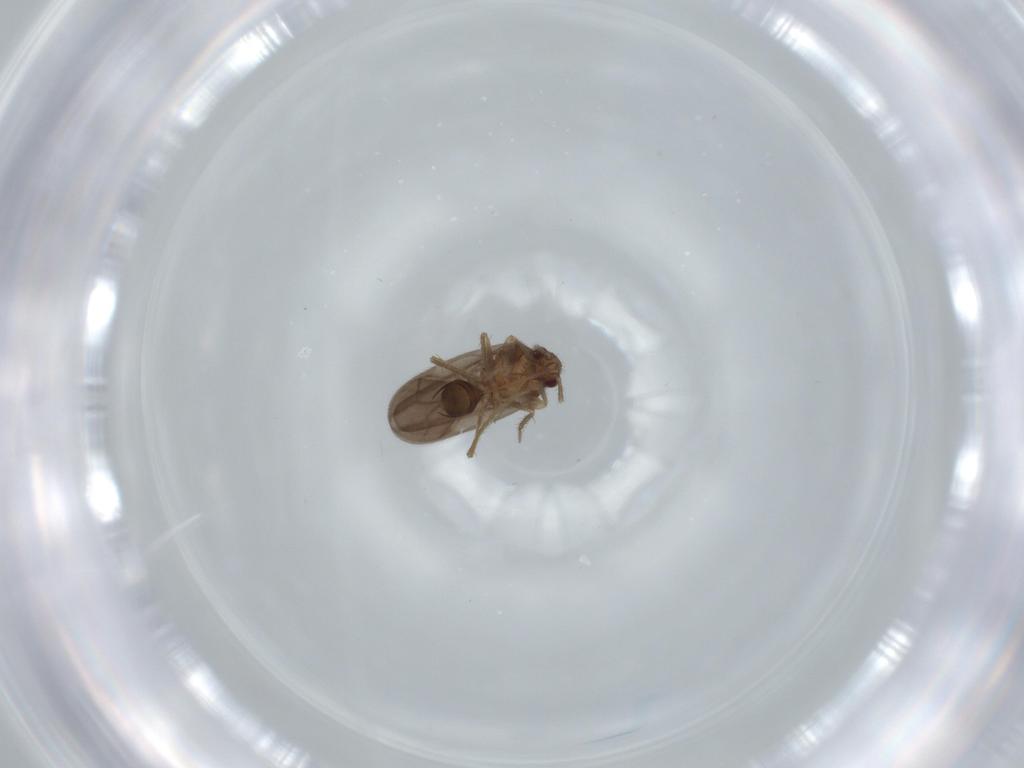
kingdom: Animalia
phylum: Arthropoda
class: Insecta
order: Hemiptera
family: Ceratocombidae
